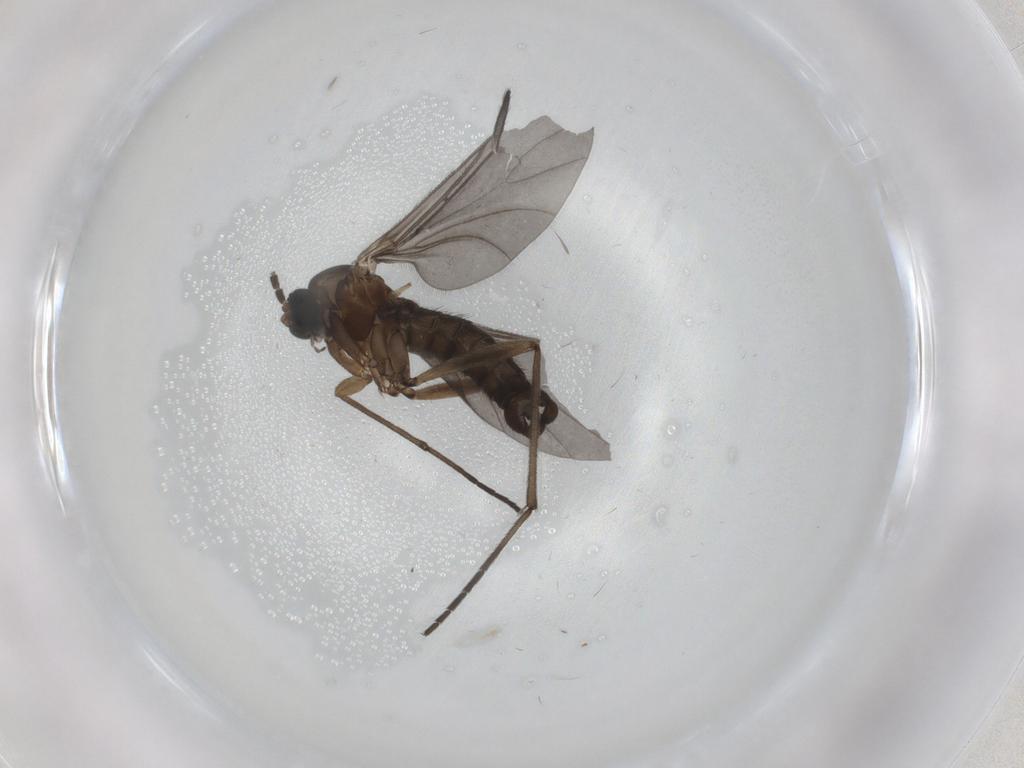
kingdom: Animalia
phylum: Arthropoda
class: Insecta
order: Diptera
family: Sciaridae
